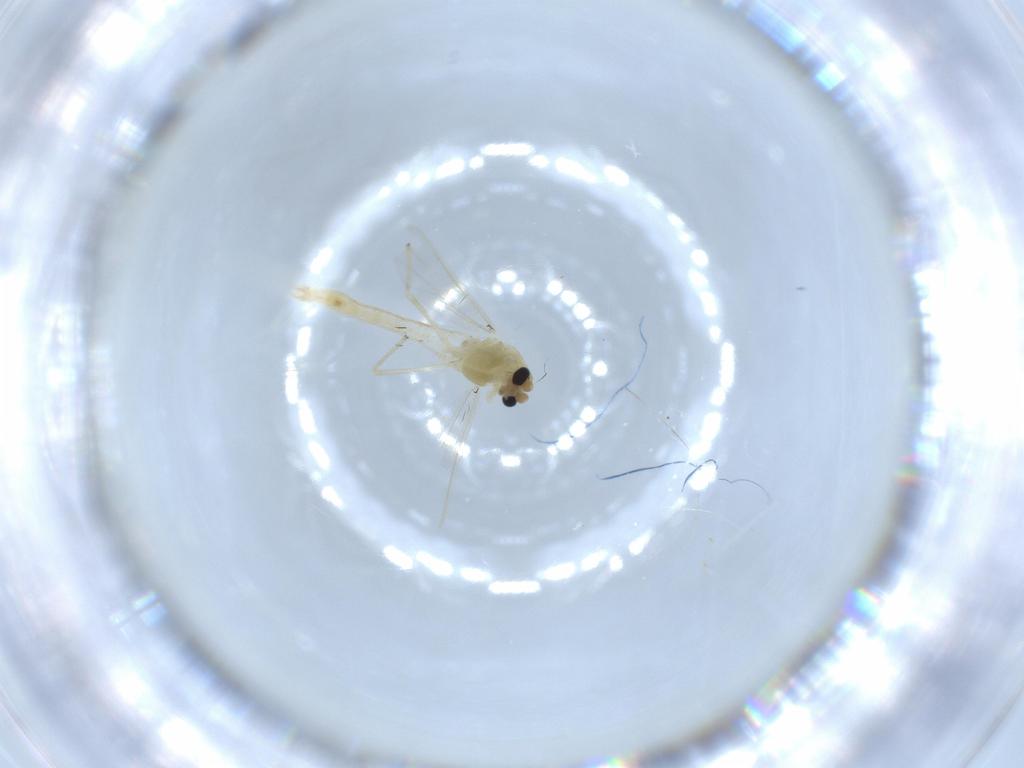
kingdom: Animalia
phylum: Arthropoda
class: Insecta
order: Diptera
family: Chironomidae
